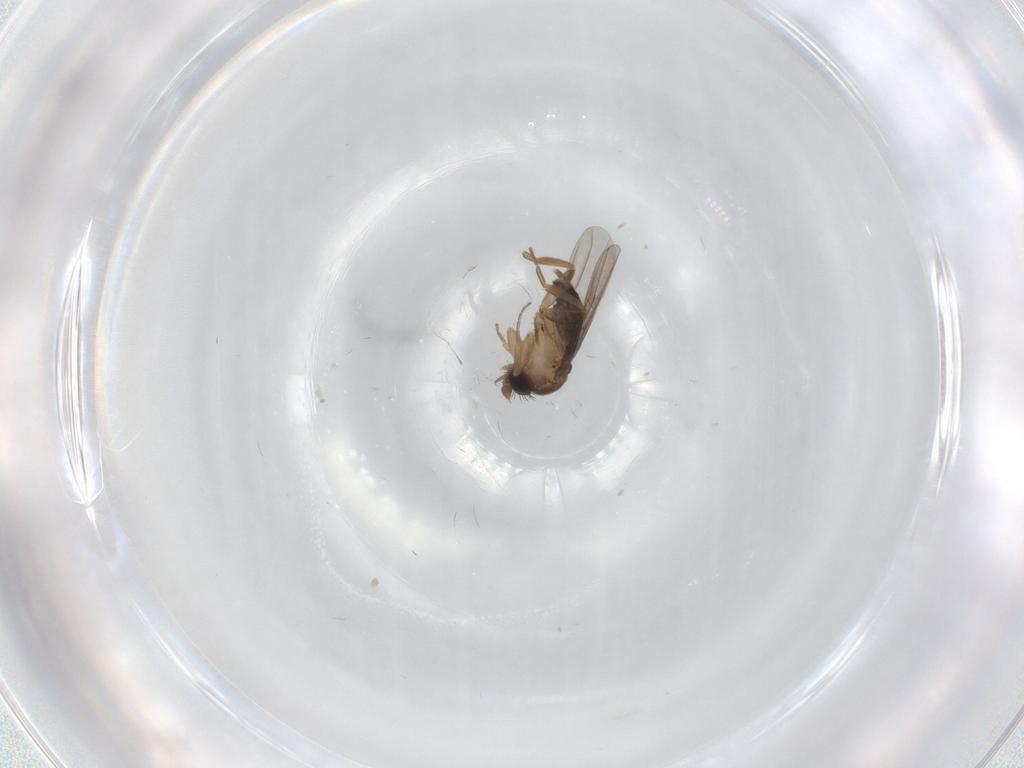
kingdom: Animalia
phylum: Arthropoda
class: Insecta
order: Diptera
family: Phoridae
